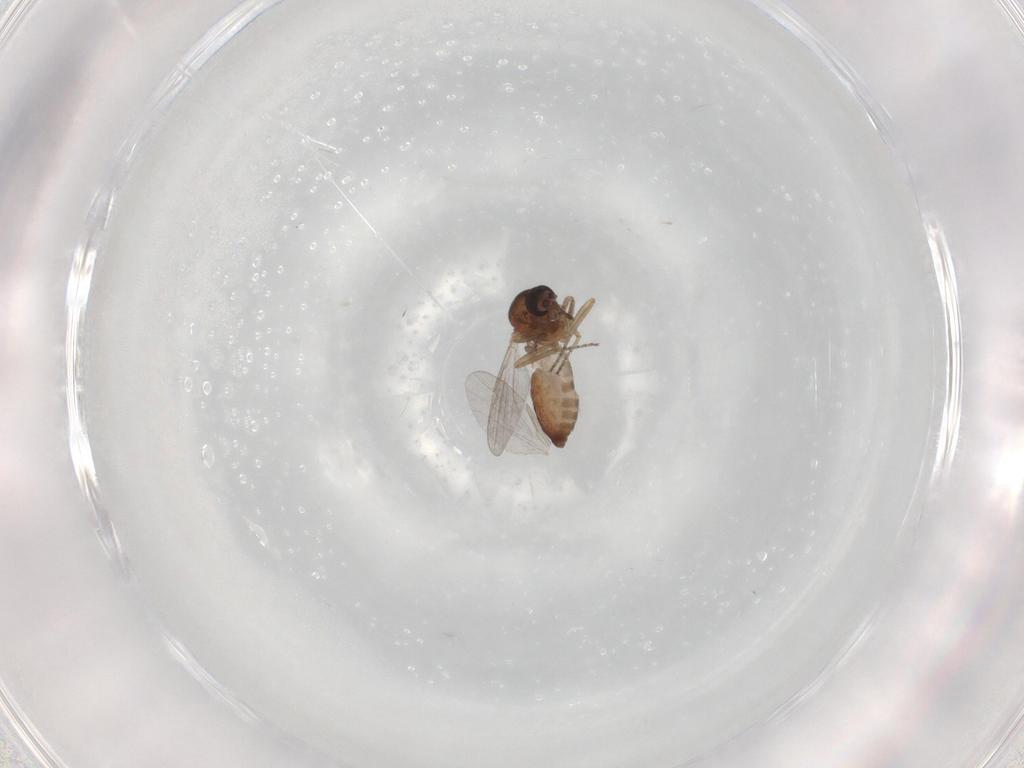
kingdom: Animalia
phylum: Arthropoda
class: Insecta
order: Diptera
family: Ceratopogonidae
